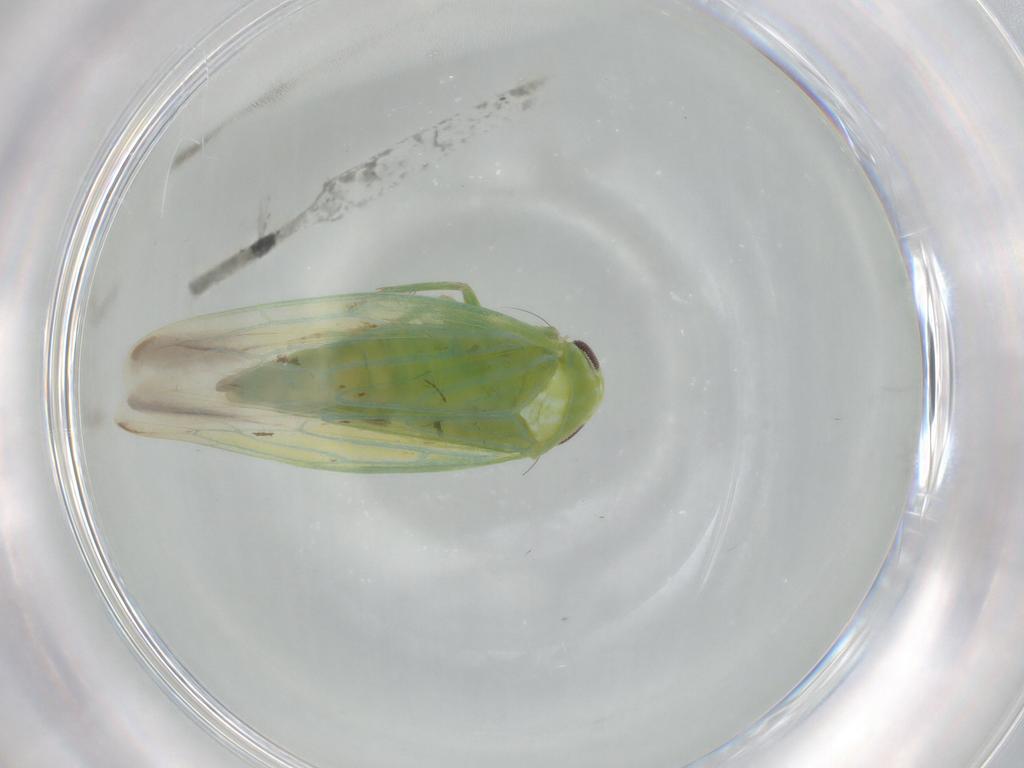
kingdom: Animalia
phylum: Arthropoda
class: Insecta
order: Hemiptera
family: Cicadellidae
